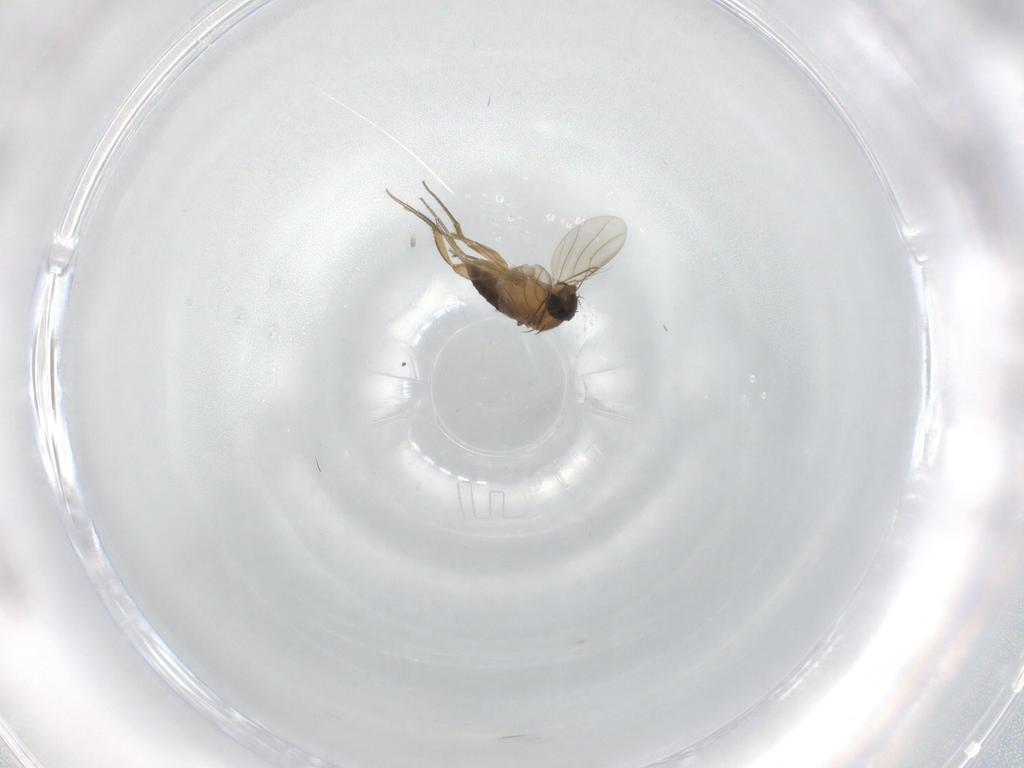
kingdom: Animalia
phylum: Arthropoda
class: Insecta
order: Diptera
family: Phoridae
